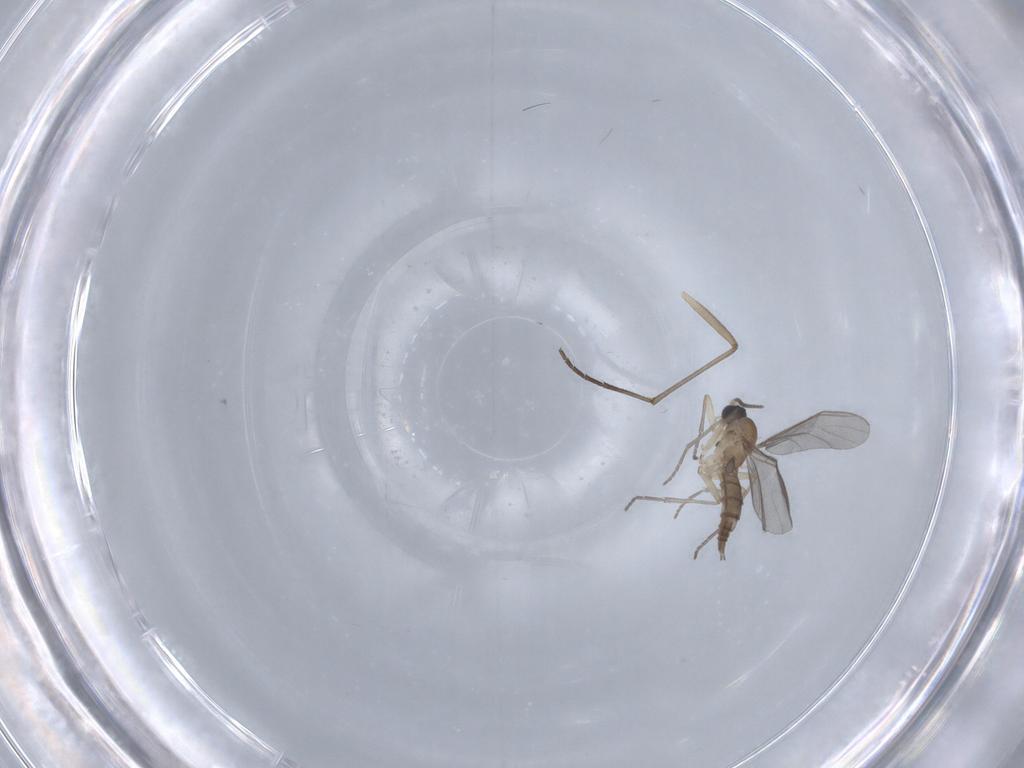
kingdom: Animalia
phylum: Arthropoda
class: Insecta
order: Diptera
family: Sciaridae
